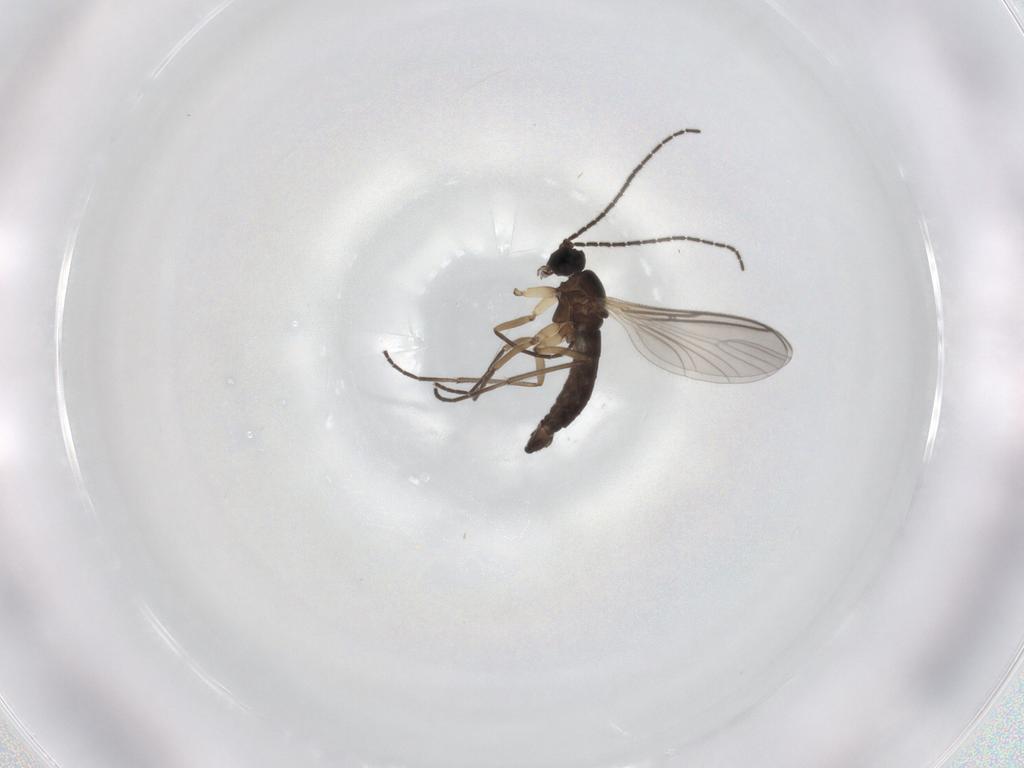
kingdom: Animalia
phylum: Arthropoda
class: Insecta
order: Diptera
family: Sciaridae
